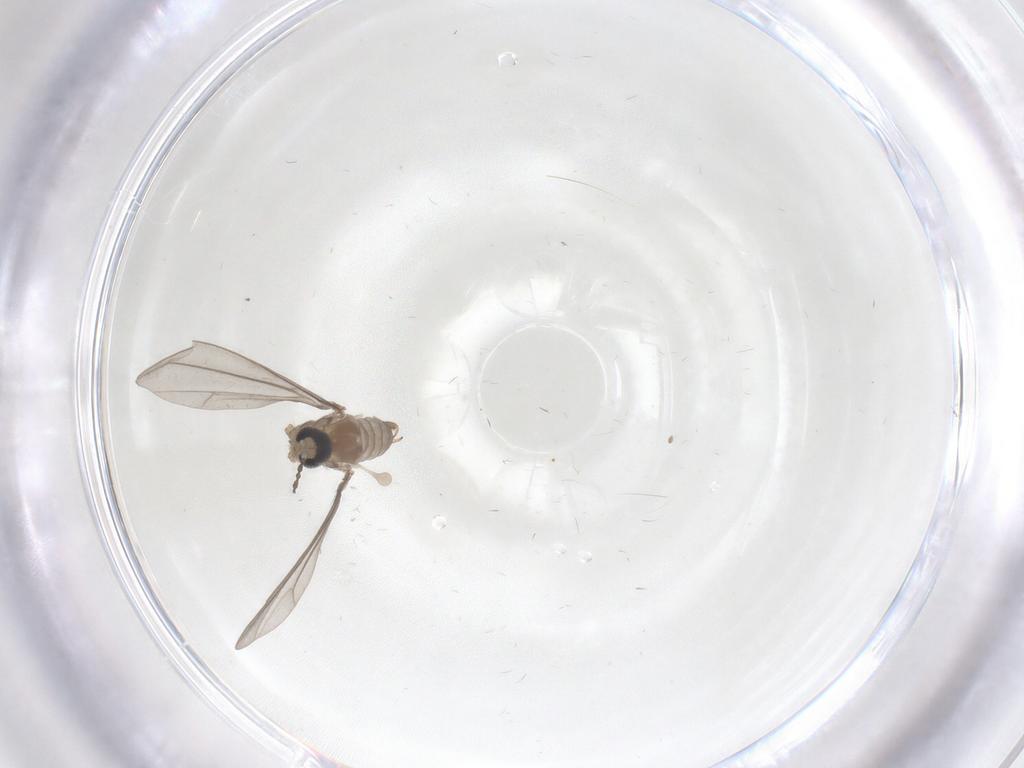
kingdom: Animalia
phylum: Arthropoda
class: Insecta
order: Diptera
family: Cecidomyiidae
